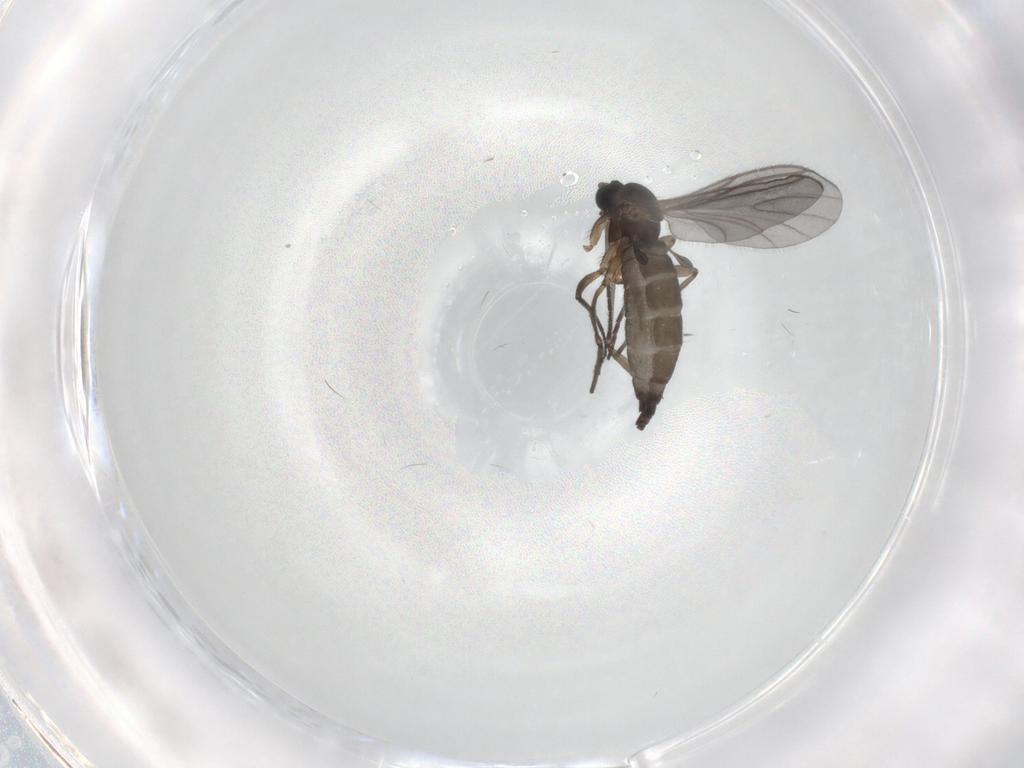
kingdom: Animalia
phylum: Arthropoda
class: Insecta
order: Diptera
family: Sciaridae
